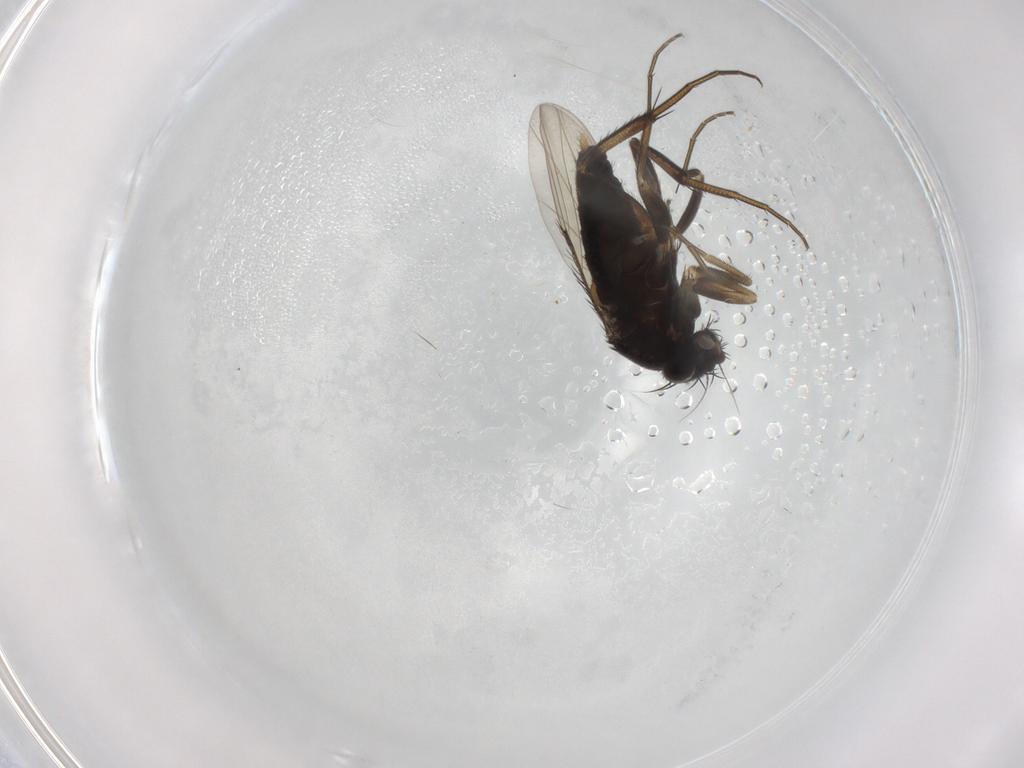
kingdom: Animalia
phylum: Arthropoda
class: Insecta
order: Diptera
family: Phoridae
